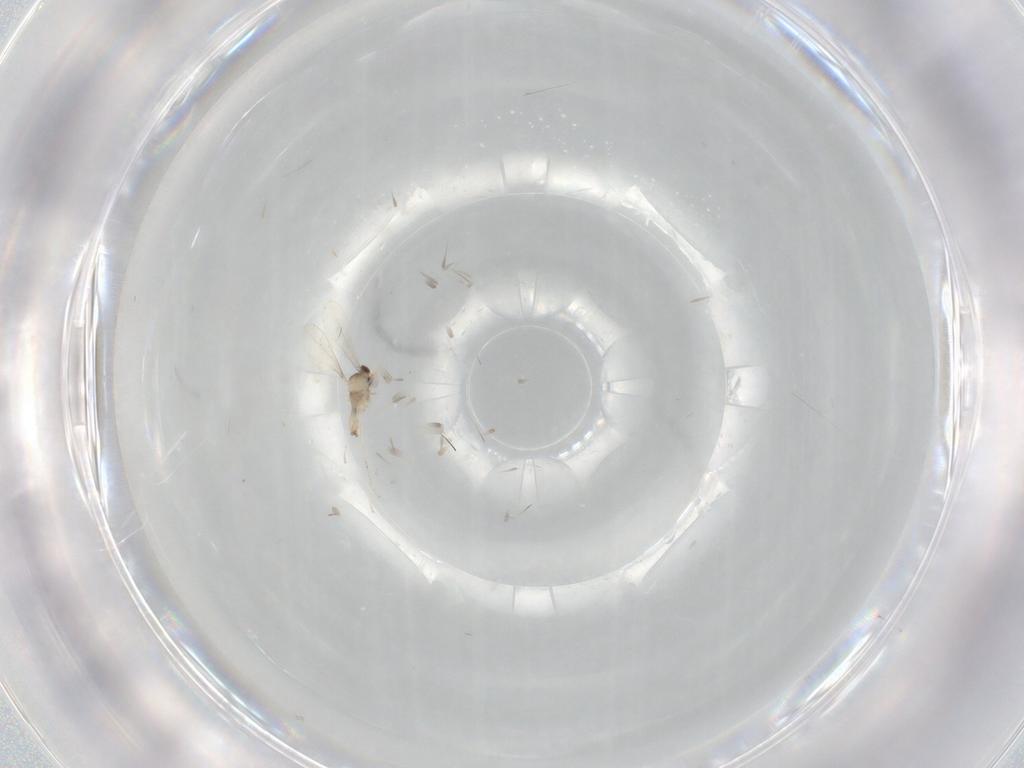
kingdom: Animalia
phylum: Arthropoda
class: Insecta
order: Diptera
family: Cecidomyiidae
